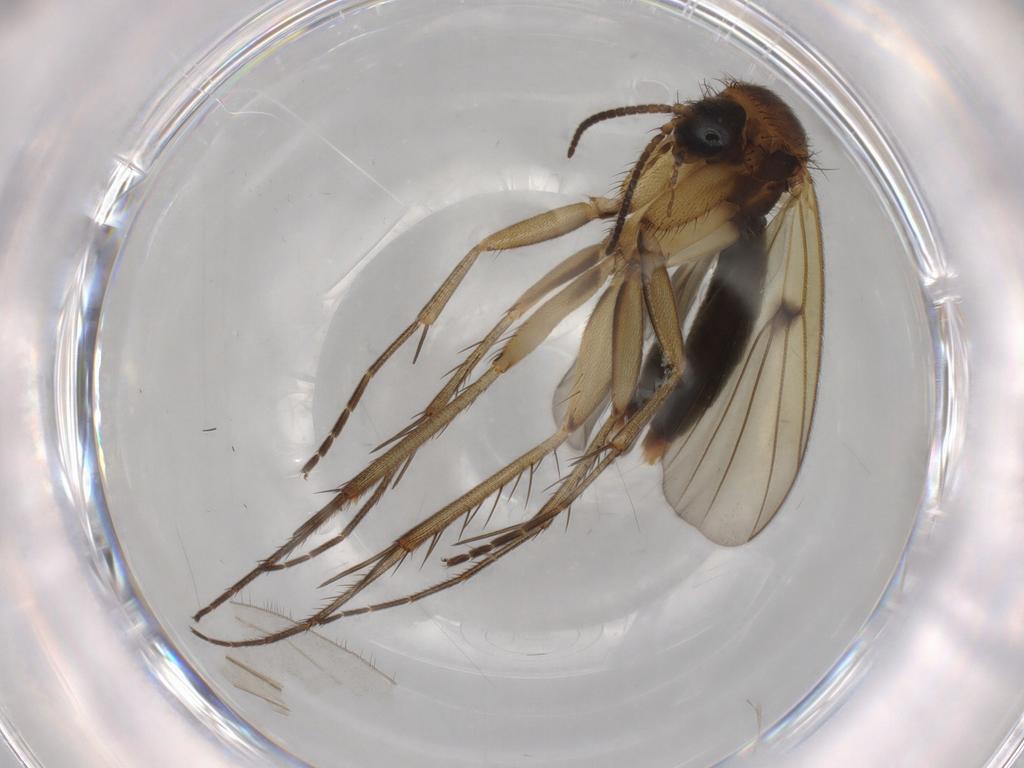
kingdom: Animalia
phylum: Arthropoda
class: Insecta
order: Diptera
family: Mycetophilidae
